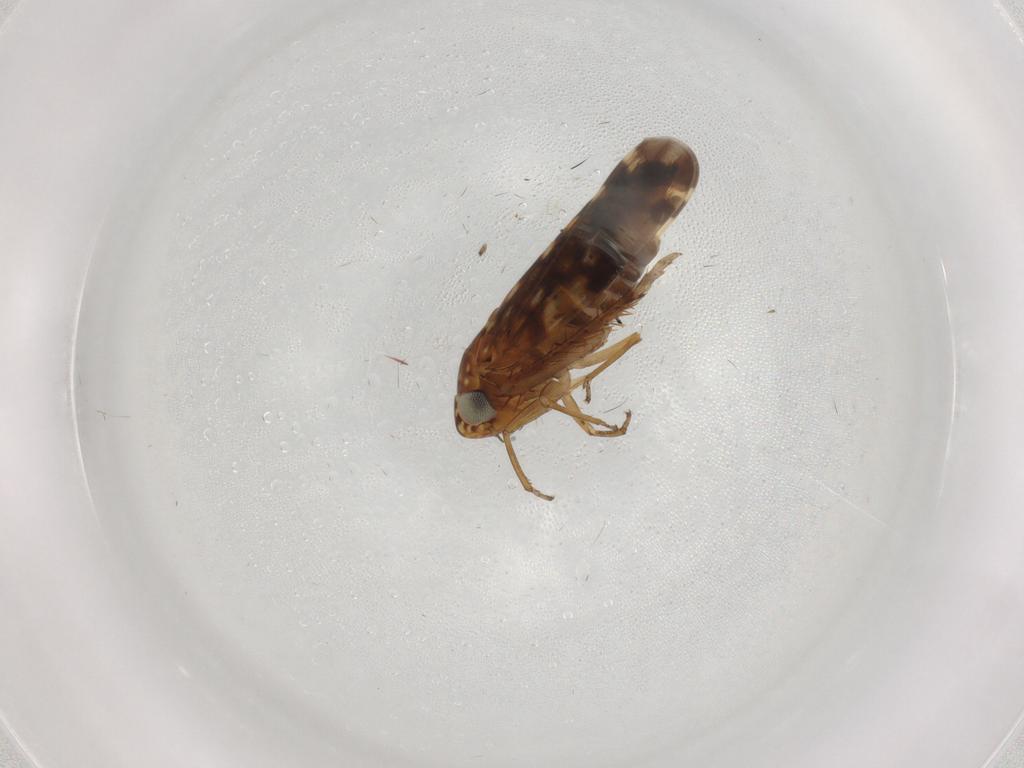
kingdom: Animalia
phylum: Arthropoda
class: Insecta
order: Hemiptera
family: Cicadellidae
